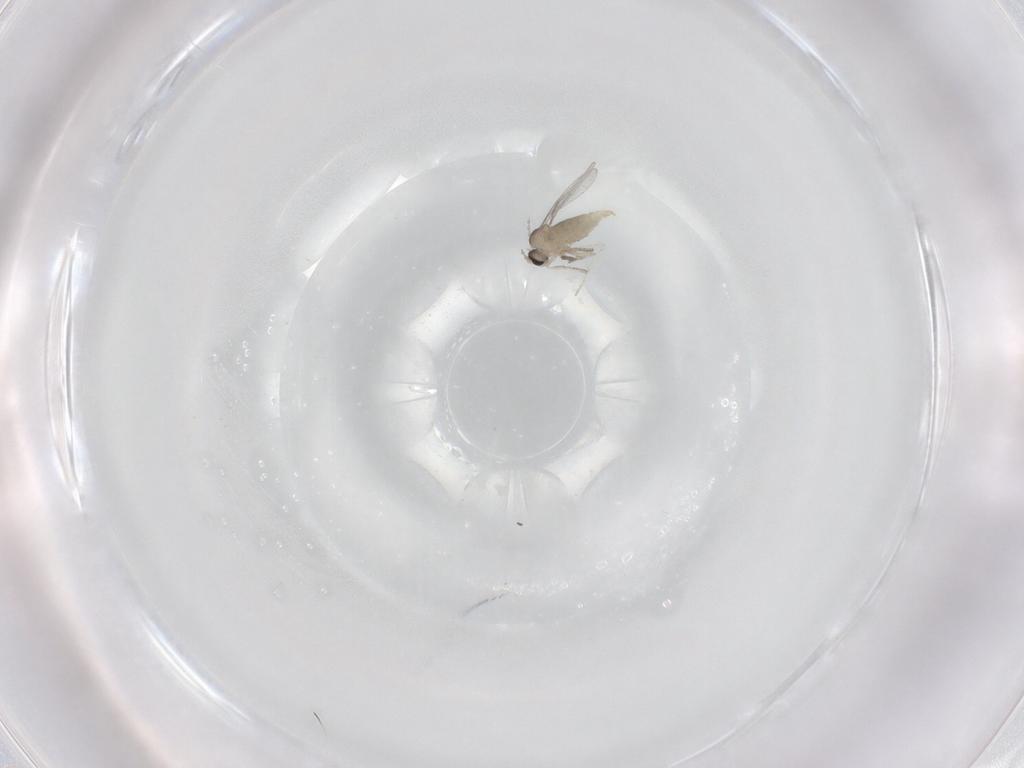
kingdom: Animalia
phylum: Arthropoda
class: Insecta
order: Diptera
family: Cecidomyiidae
